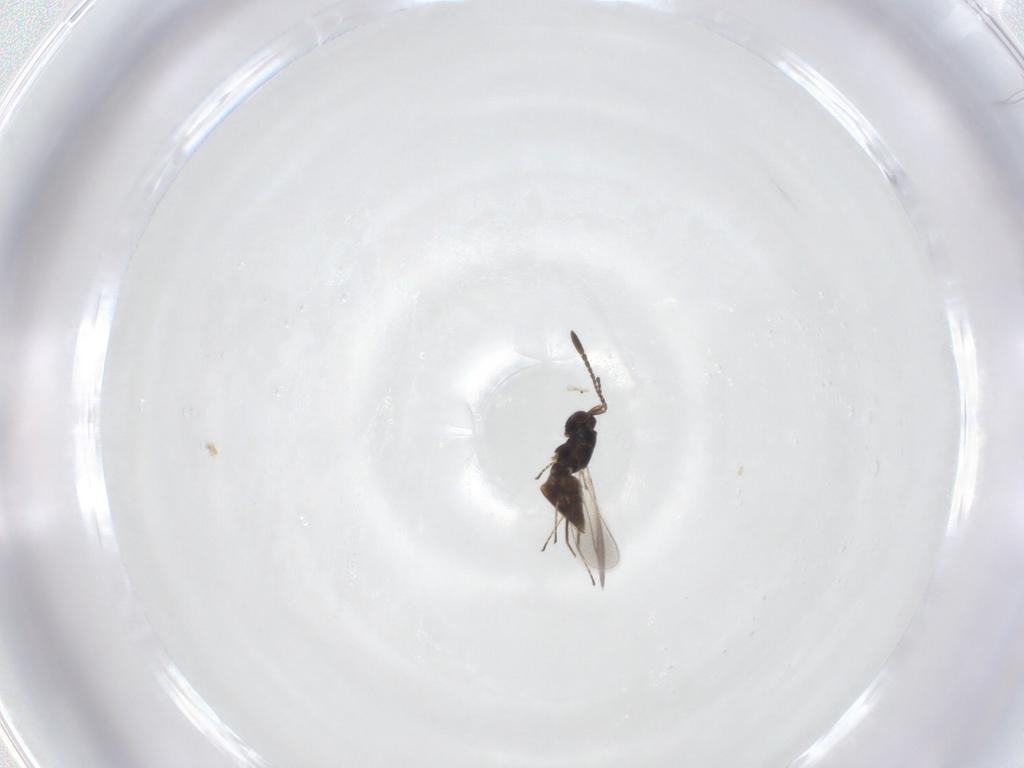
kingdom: Animalia
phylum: Arthropoda
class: Insecta
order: Hymenoptera
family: Mymaridae
